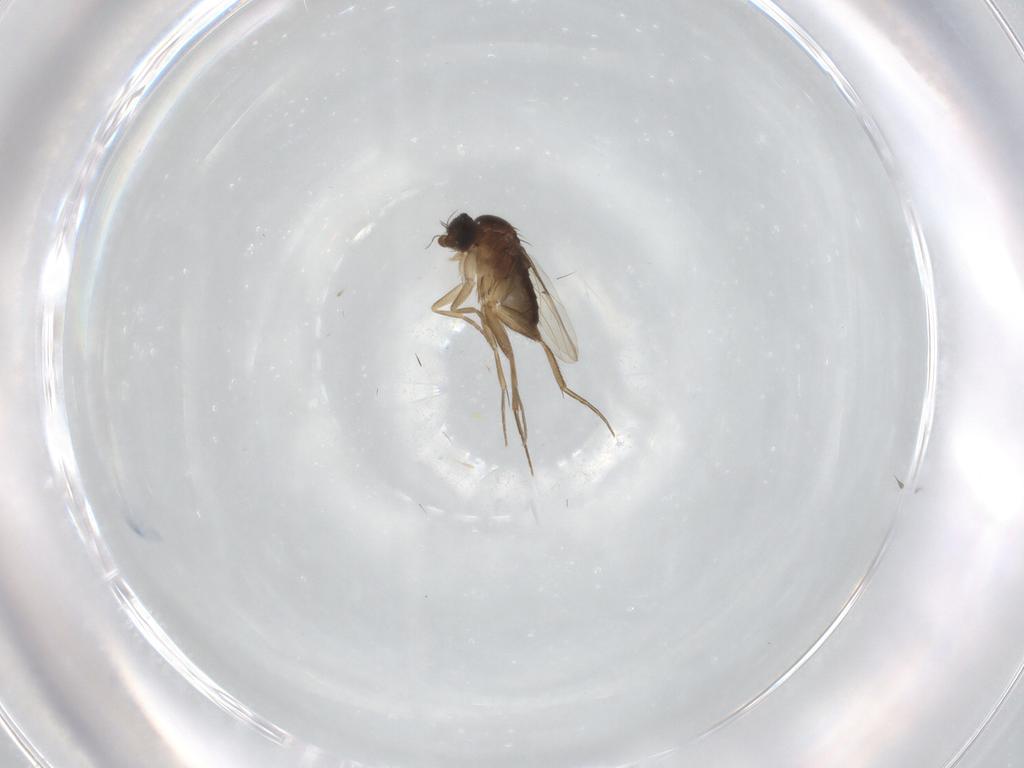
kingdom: Animalia
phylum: Arthropoda
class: Insecta
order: Diptera
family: Phoridae
